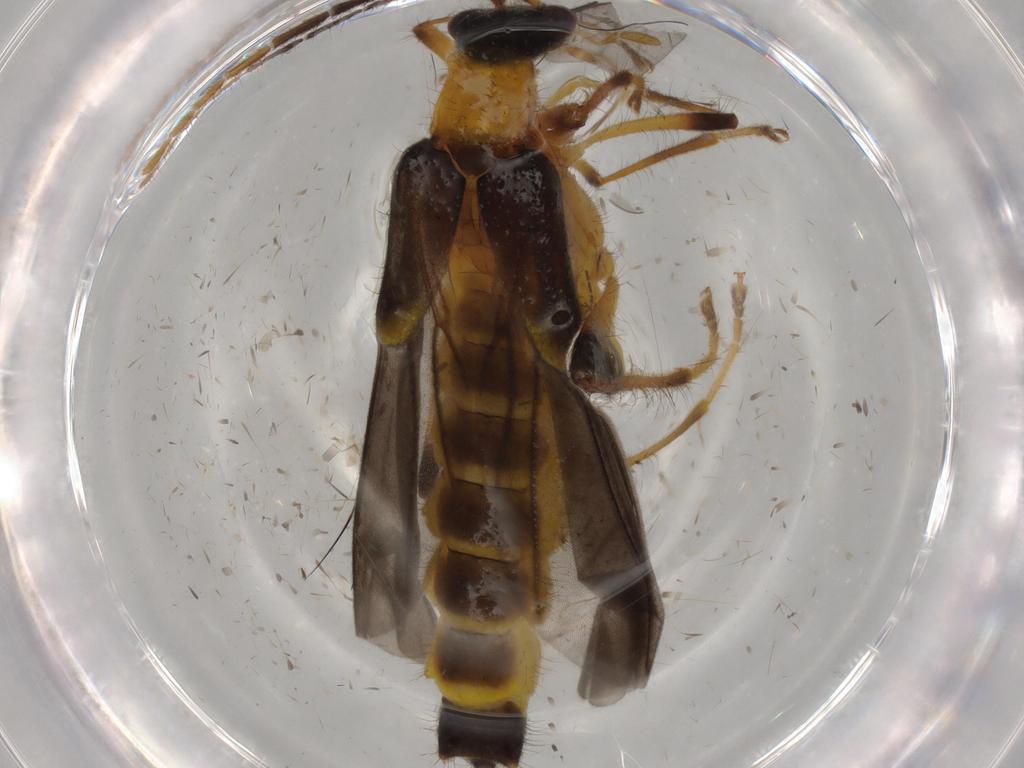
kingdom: Animalia
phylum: Arthropoda
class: Insecta
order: Coleoptera
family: Cantharidae
